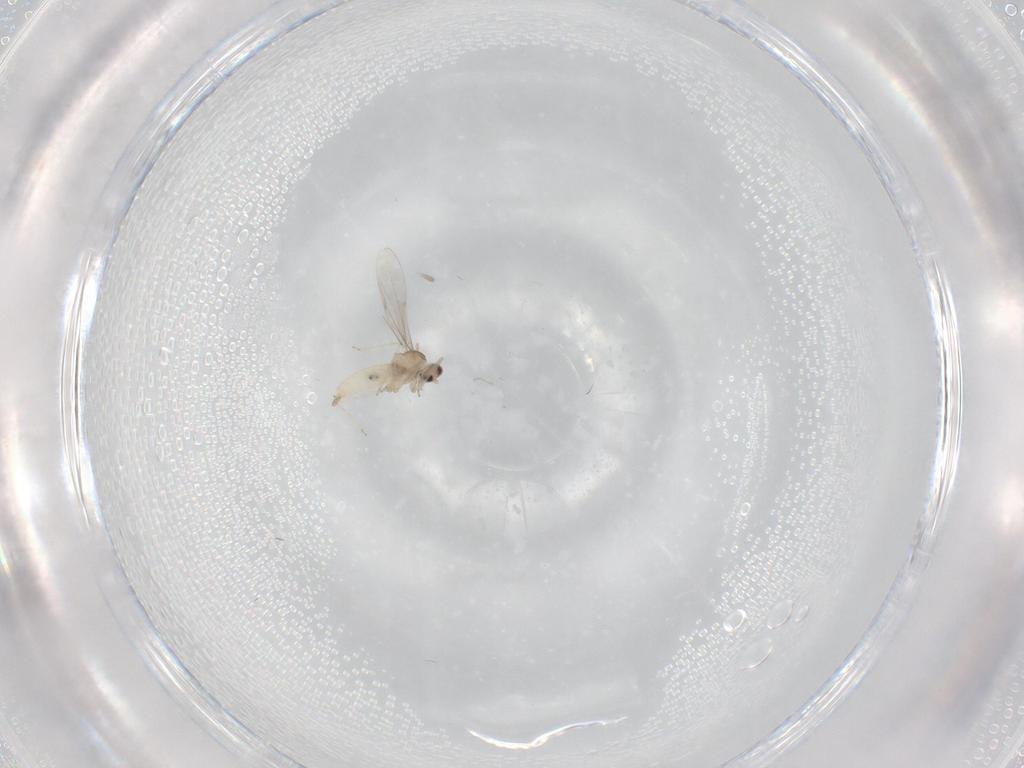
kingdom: Animalia
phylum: Arthropoda
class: Insecta
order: Diptera
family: Cecidomyiidae
